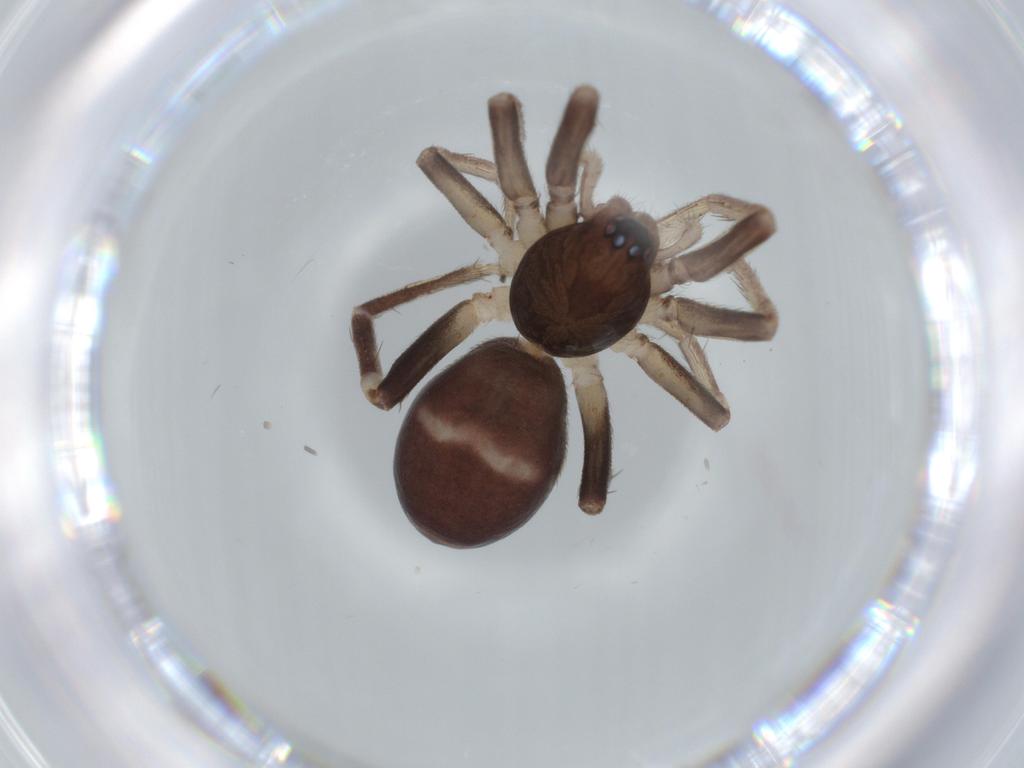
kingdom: Animalia
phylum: Arthropoda
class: Arachnida
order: Araneae
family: Corinnidae
